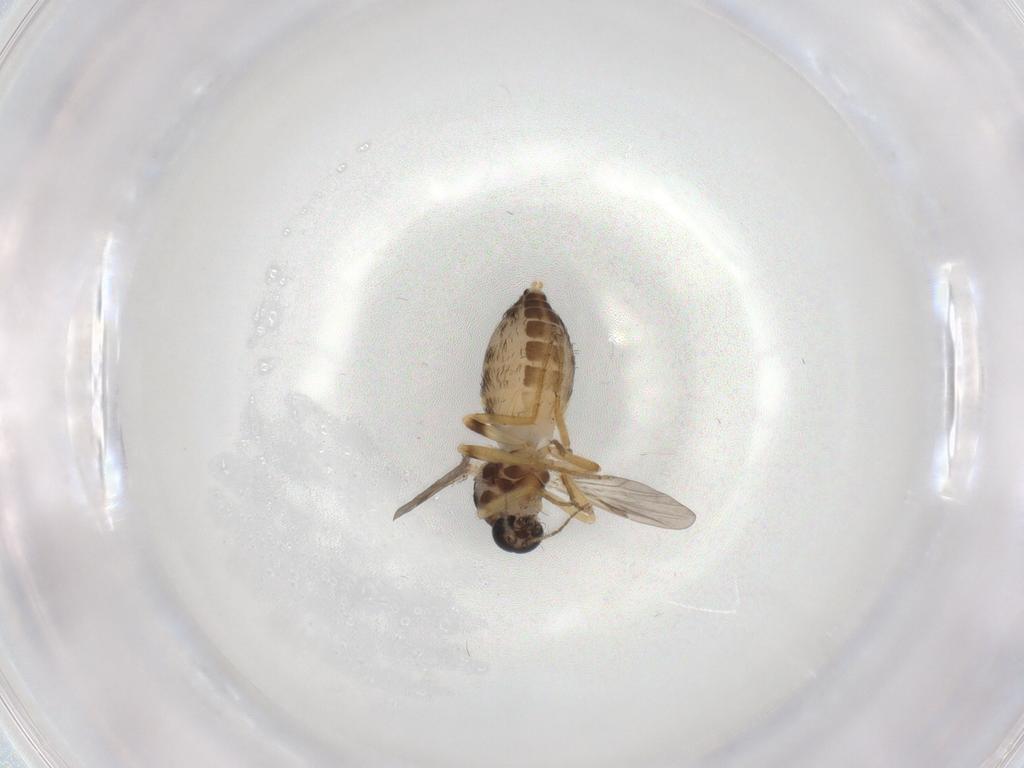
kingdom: Animalia
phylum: Arthropoda
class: Insecta
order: Diptera
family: Ceratopogonidae
